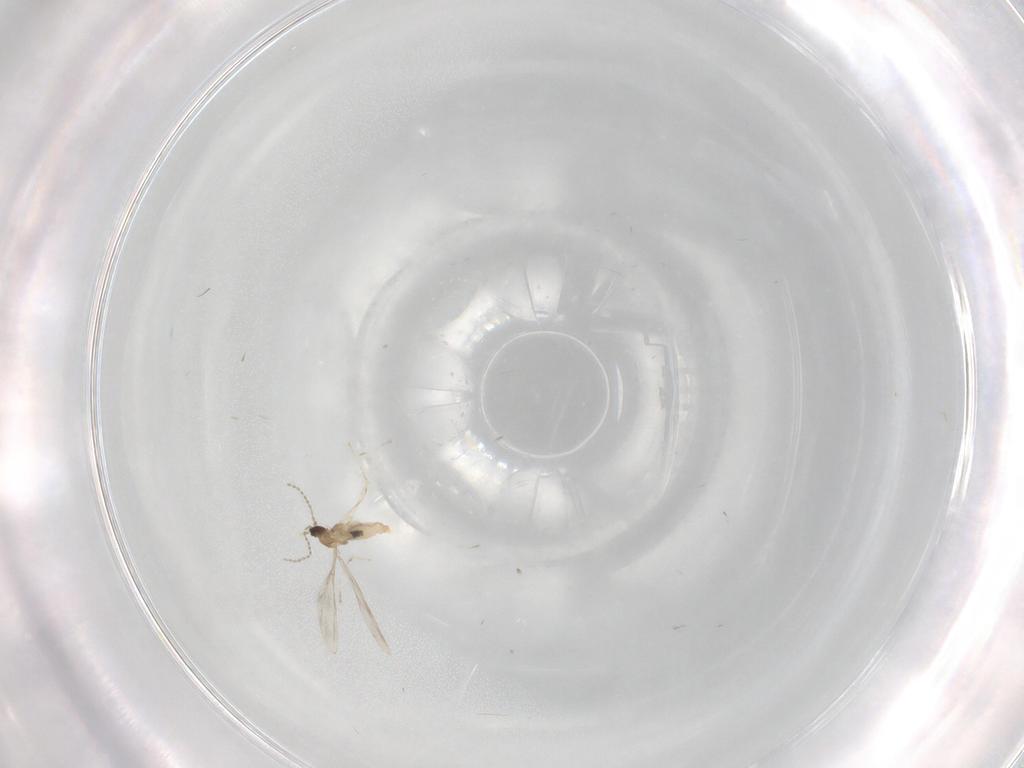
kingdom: Animalia
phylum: Arthropoda
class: Insecta
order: Diptera
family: Cecidomyiidae
